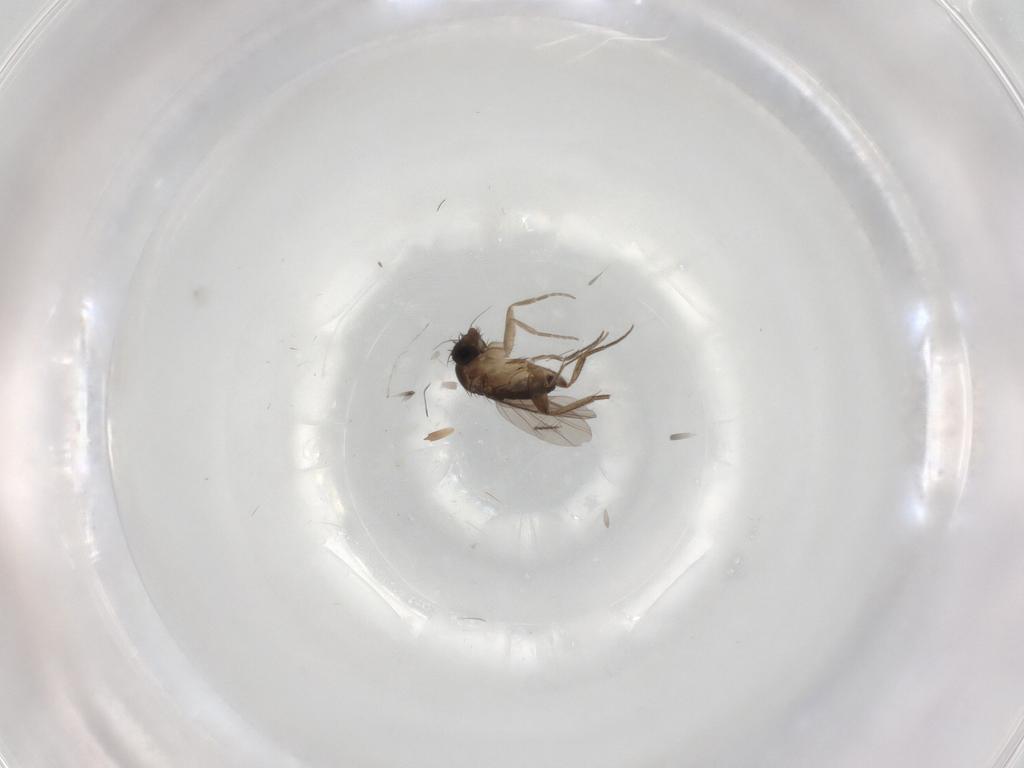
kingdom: Animalia
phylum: Arthropoda
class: Insecta
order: Diptera
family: Phoridae
